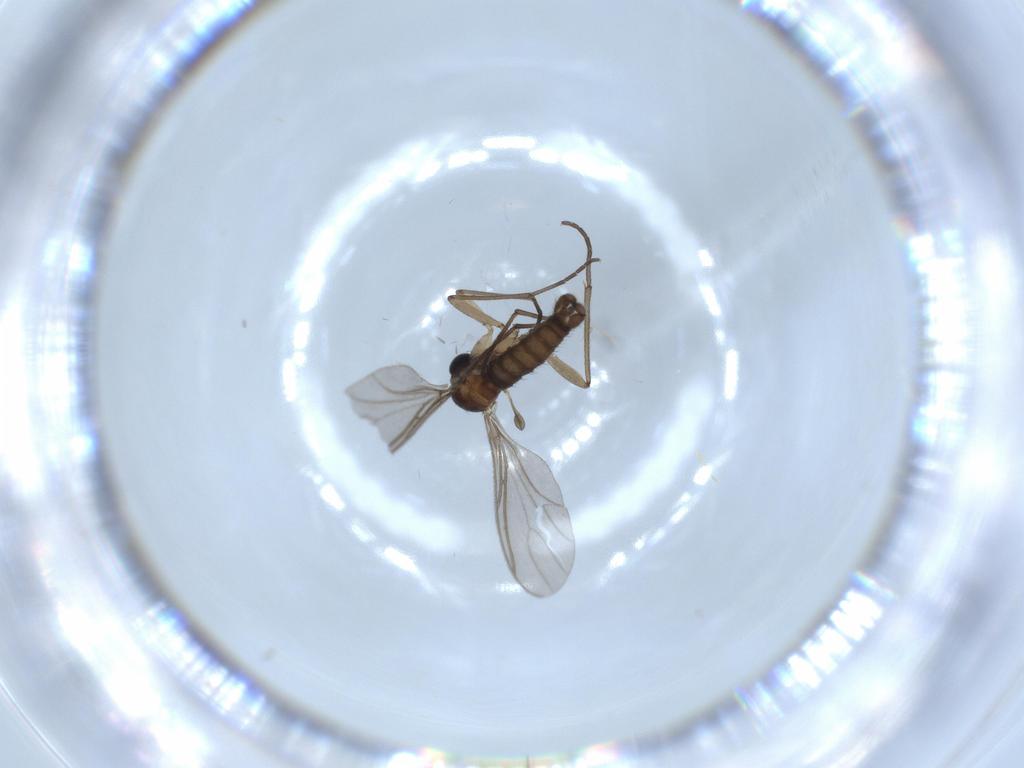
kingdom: Animalia
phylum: Arthropoda
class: Insecta
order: Diptera
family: Sciaridae
